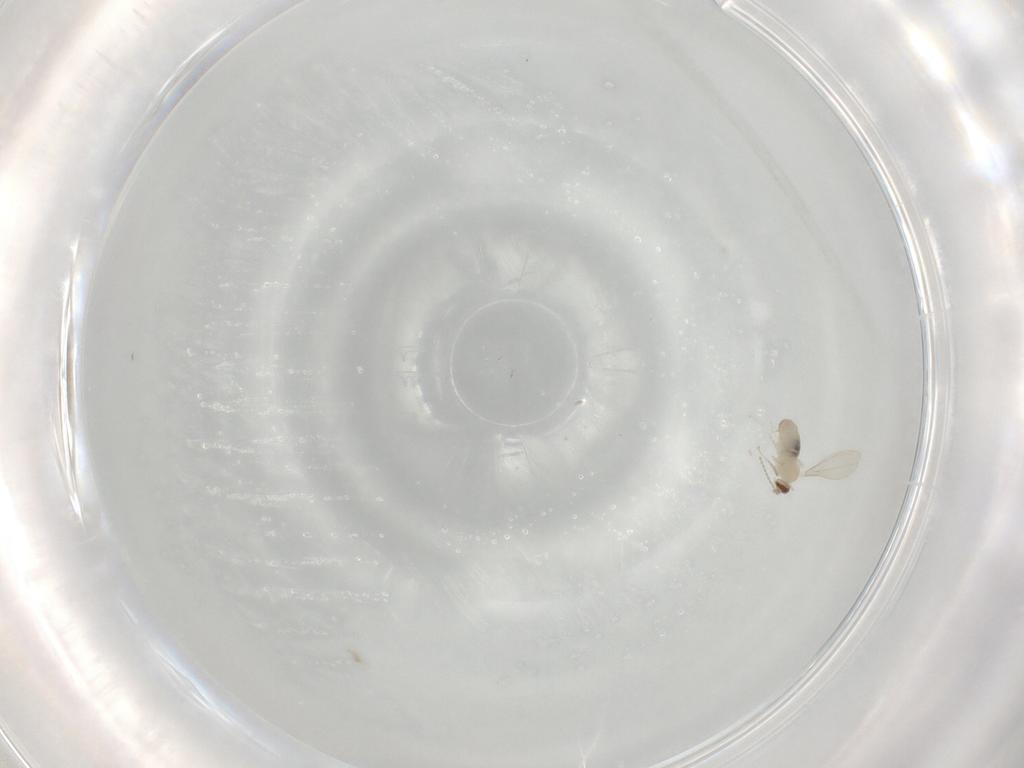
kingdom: Animalia
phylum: Arthropoda
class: Insecta
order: Diptera
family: Cecidomyiidae
